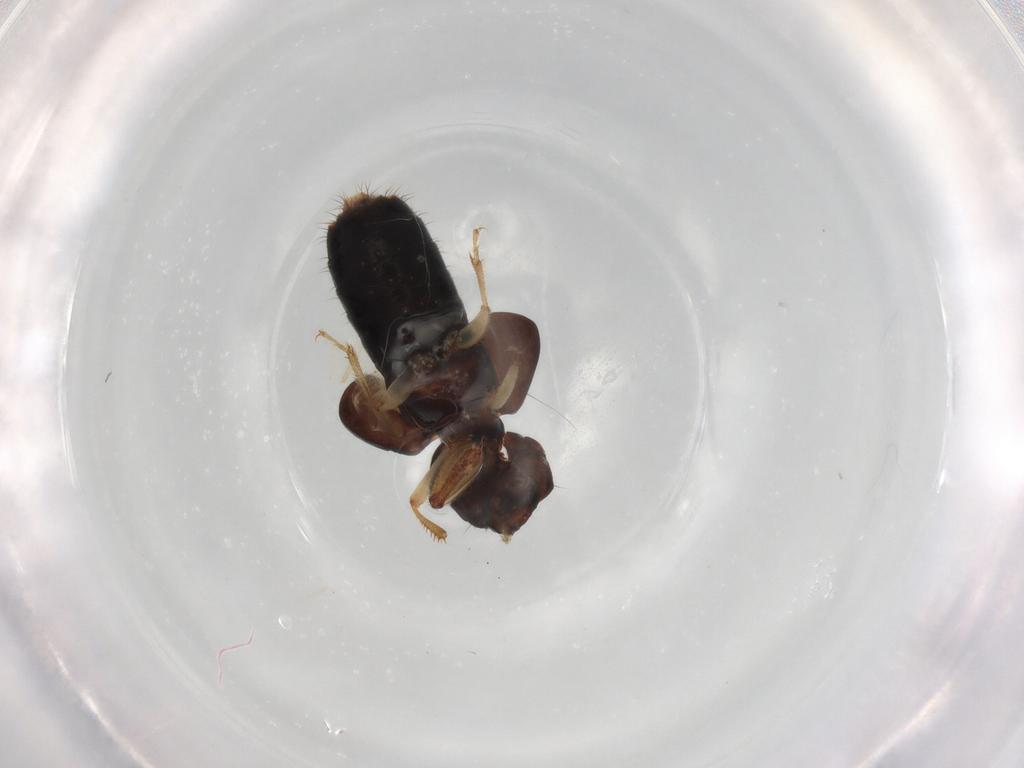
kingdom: Animalia
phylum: Arthropoda
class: Insecta
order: Coleoptera
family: Staphylinidae
